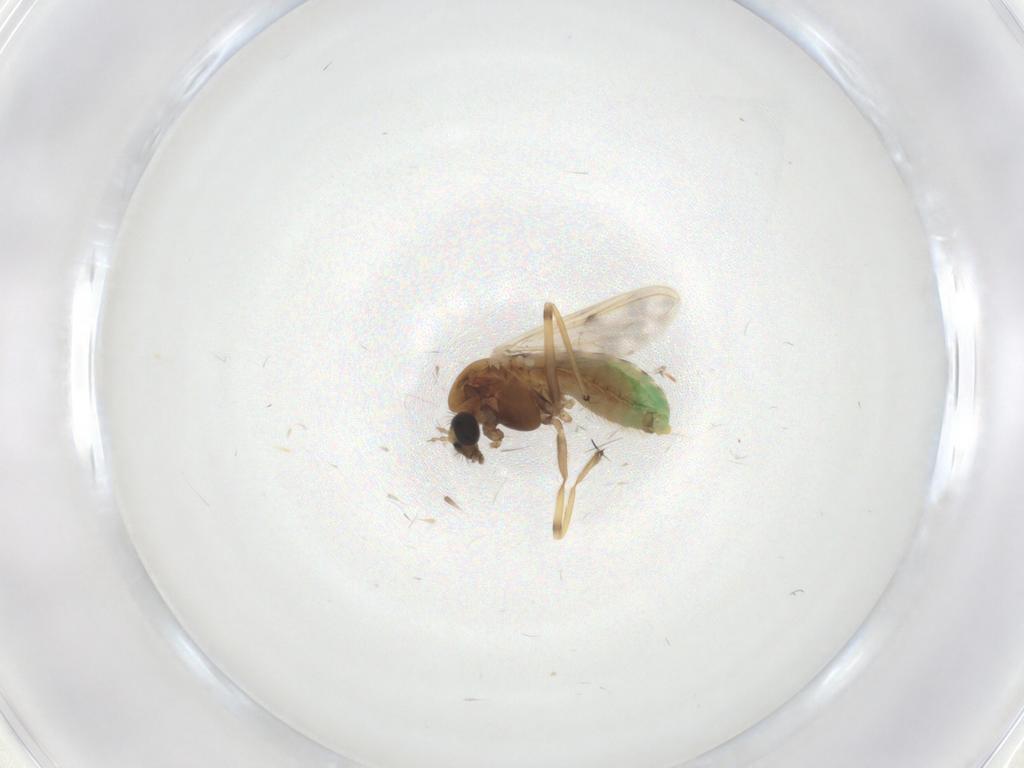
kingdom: Animalia
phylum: Arthropoda
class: Insecta
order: Diptera
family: Chironomidae
